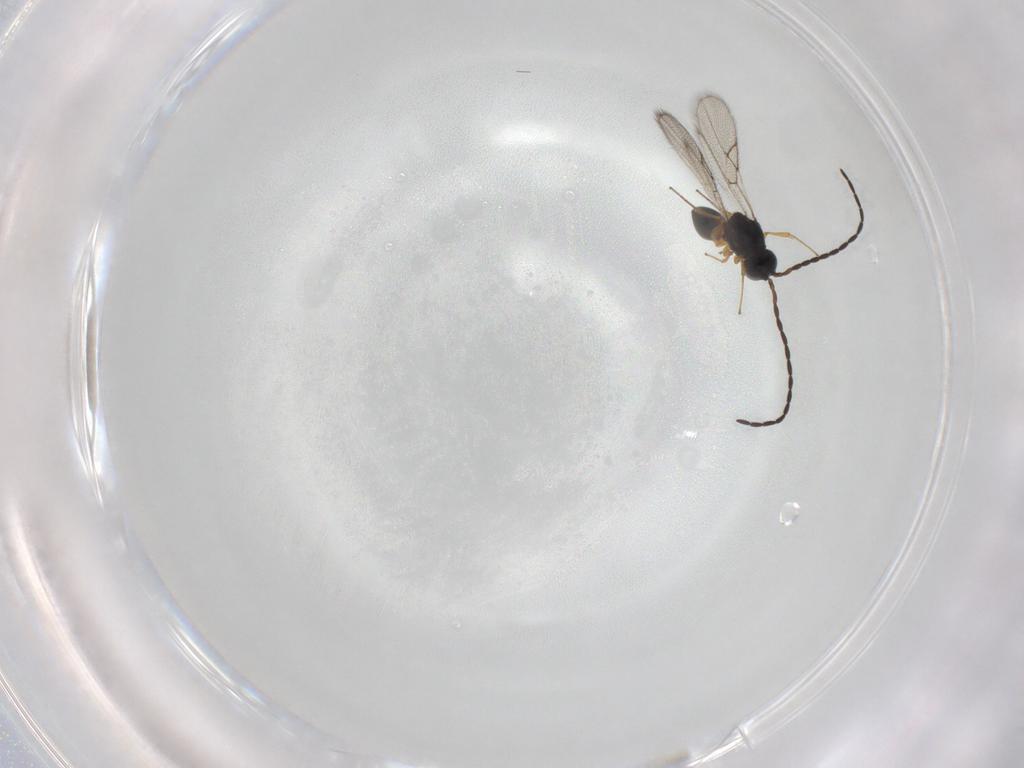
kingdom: Animalia
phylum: Arthropoda
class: Insecta
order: Hymenoptera
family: Figitidae
